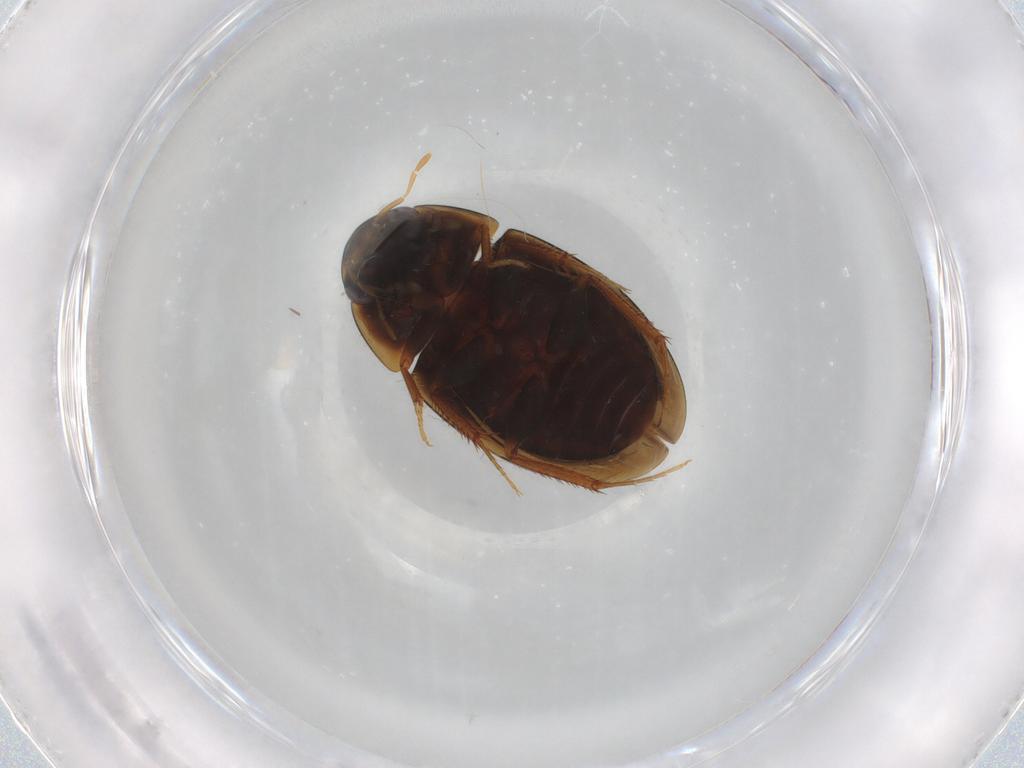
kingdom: Animalia
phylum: Arthropoda
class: Insecta
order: Coleoptera
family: Hydrophilidae
